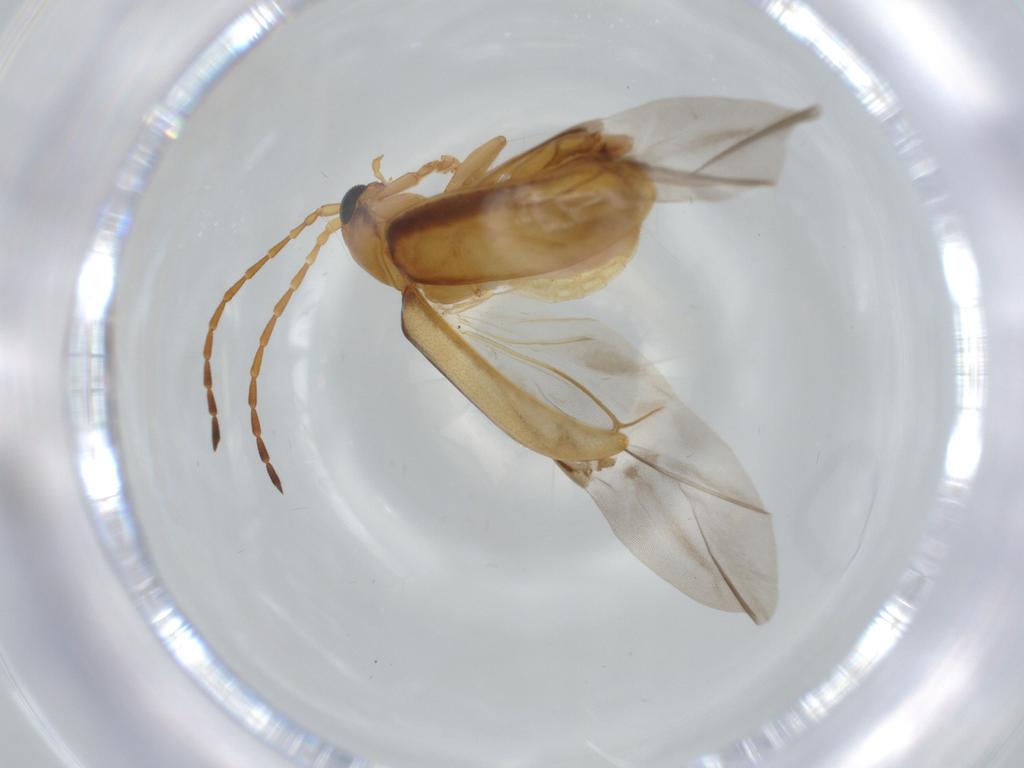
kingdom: Animalia
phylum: Arthropoda
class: Insecta
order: Coleoptera
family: Chrysomelidae
